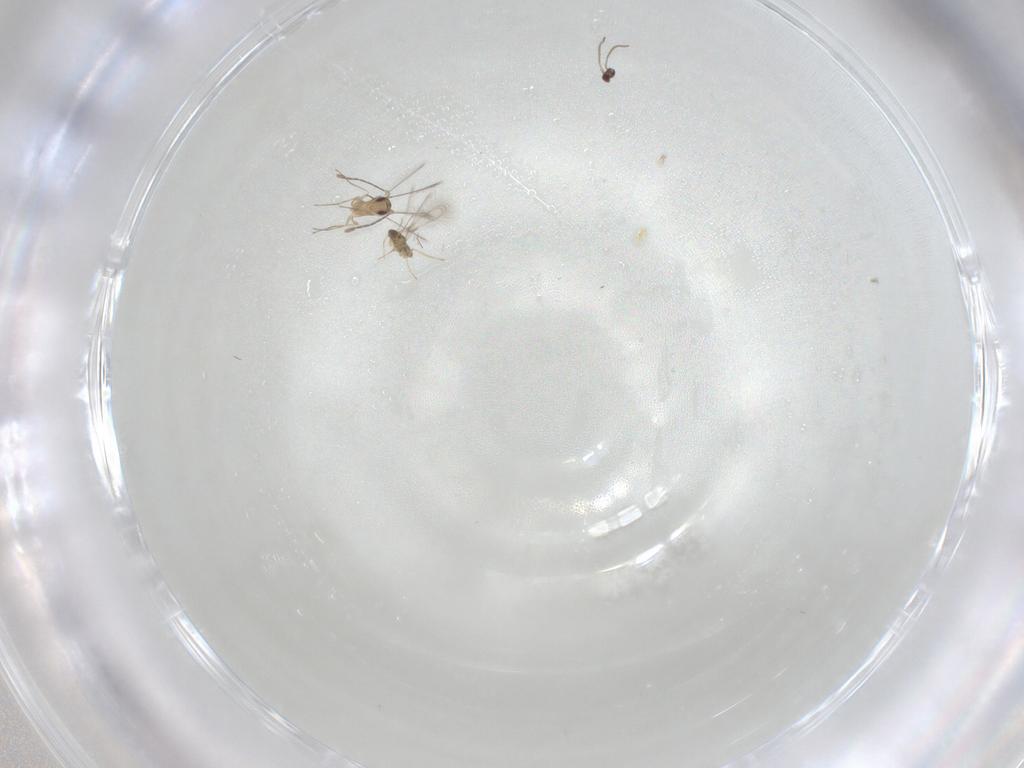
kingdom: Animalia
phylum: Arthropoda
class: Insecta
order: Hymenoptera
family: Mymaridae
